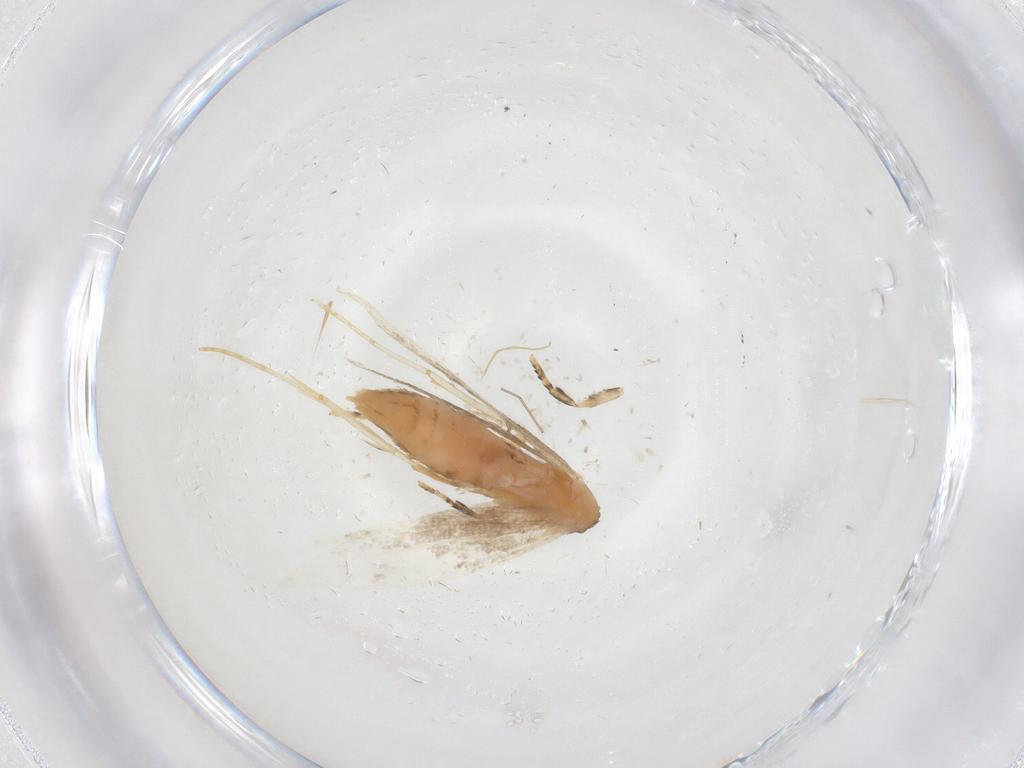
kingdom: Animalia
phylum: Arthropoda
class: Insecta
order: Lepidoptera
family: Tineidae
